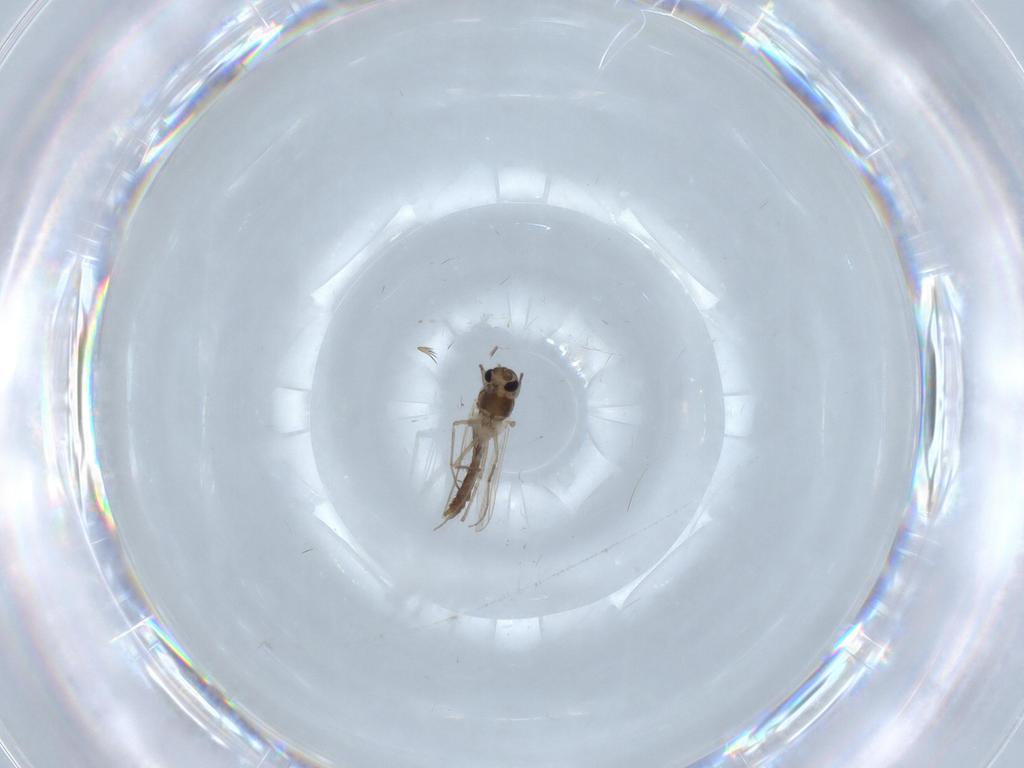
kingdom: Animalia
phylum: Arthropoda
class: Insecta
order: Diptera
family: Chironomidae
